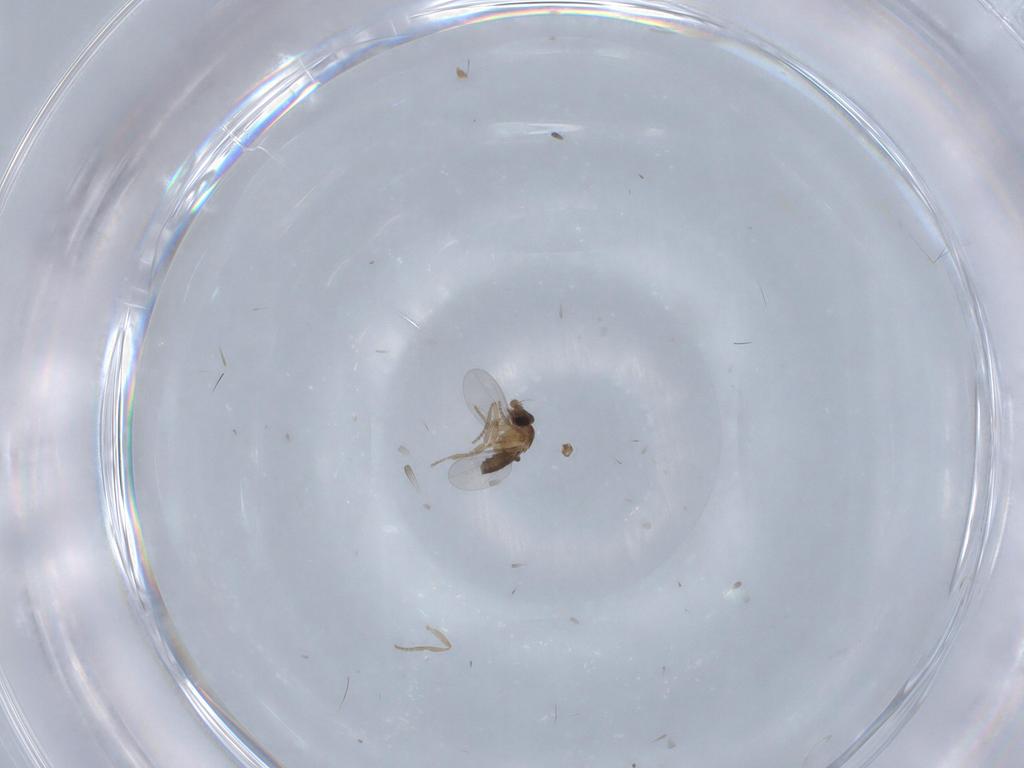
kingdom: Animalia
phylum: Arthropoda
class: Insecta
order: Diptera
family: Phoridae
